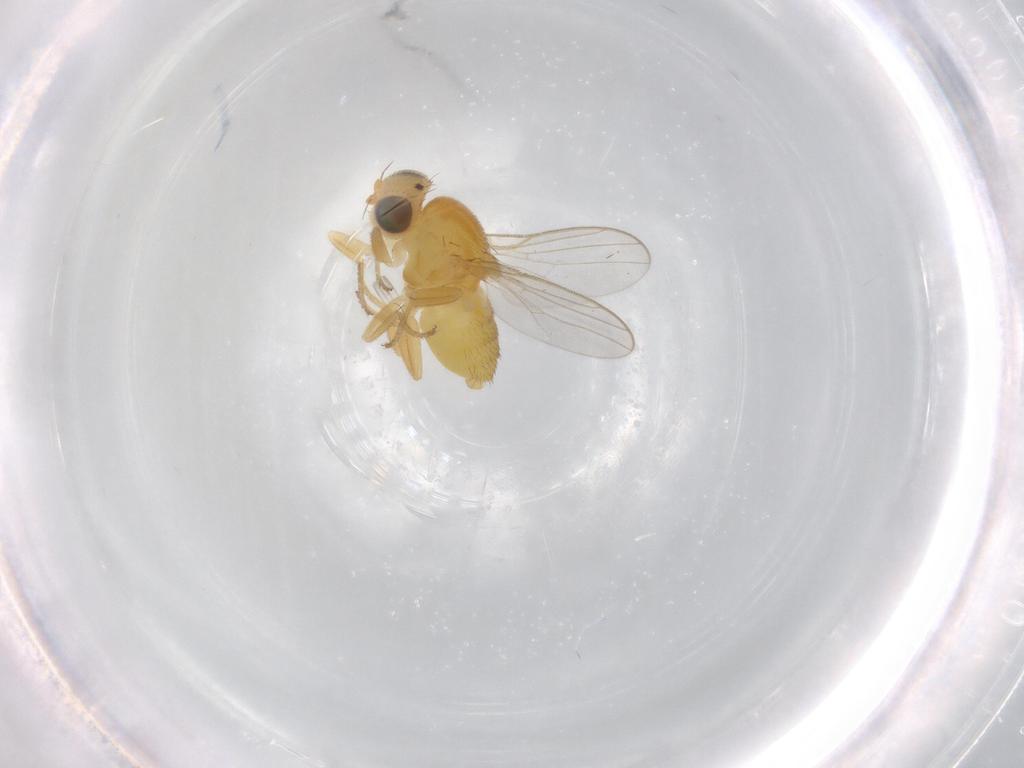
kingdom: Animalia
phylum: Arthropoda
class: Insecta
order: Diptera
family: Chloropidae
